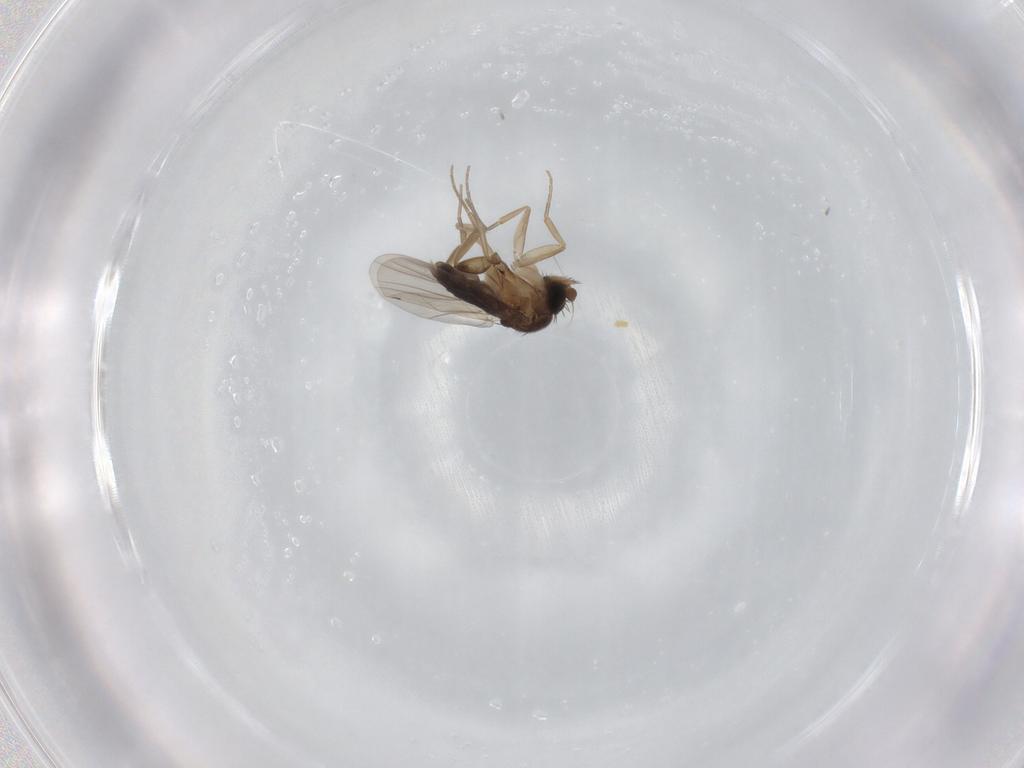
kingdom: Animalia
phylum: Arthropoda
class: Insecta
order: Diptera
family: Phoridae
